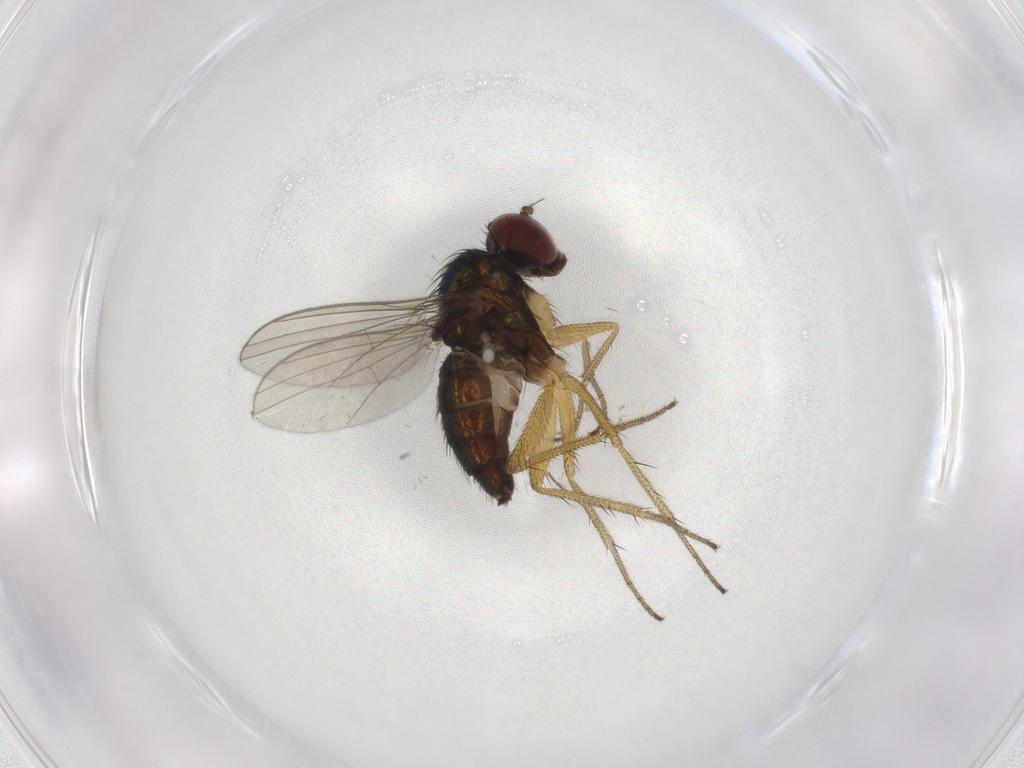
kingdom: Animalia
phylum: Arthropoda
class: Insecta
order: Diptera
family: Dolichopodidae
